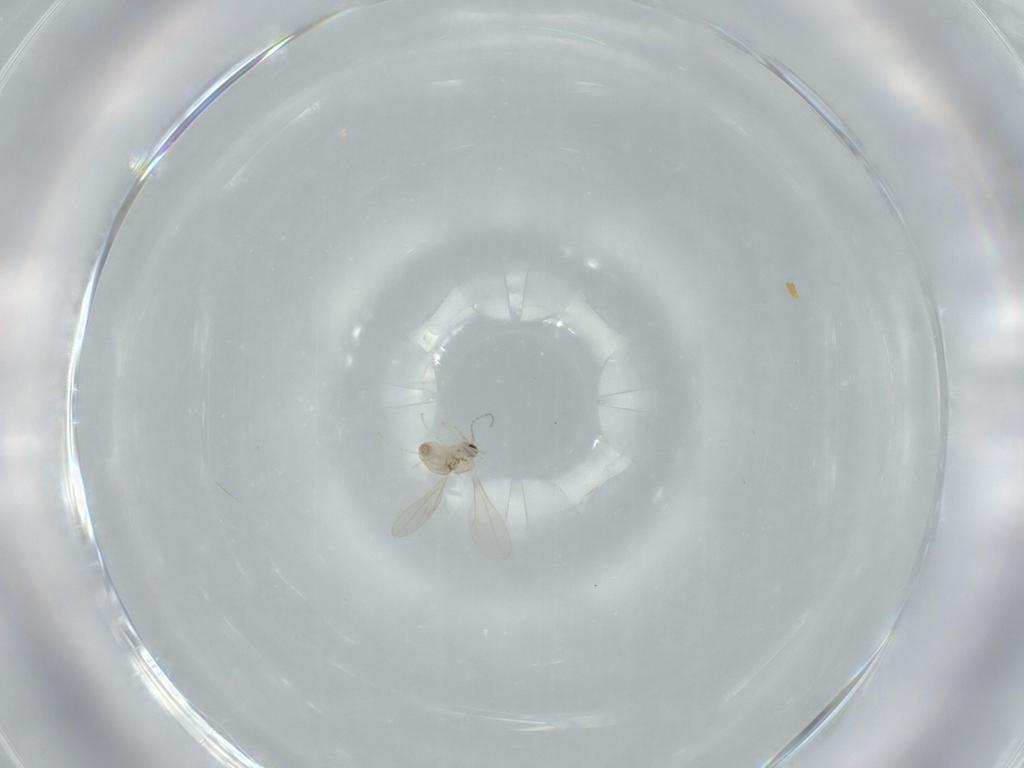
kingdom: Animalia
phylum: Arthropoda
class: Insecta
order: Diptera
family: Cecidomyiidae
